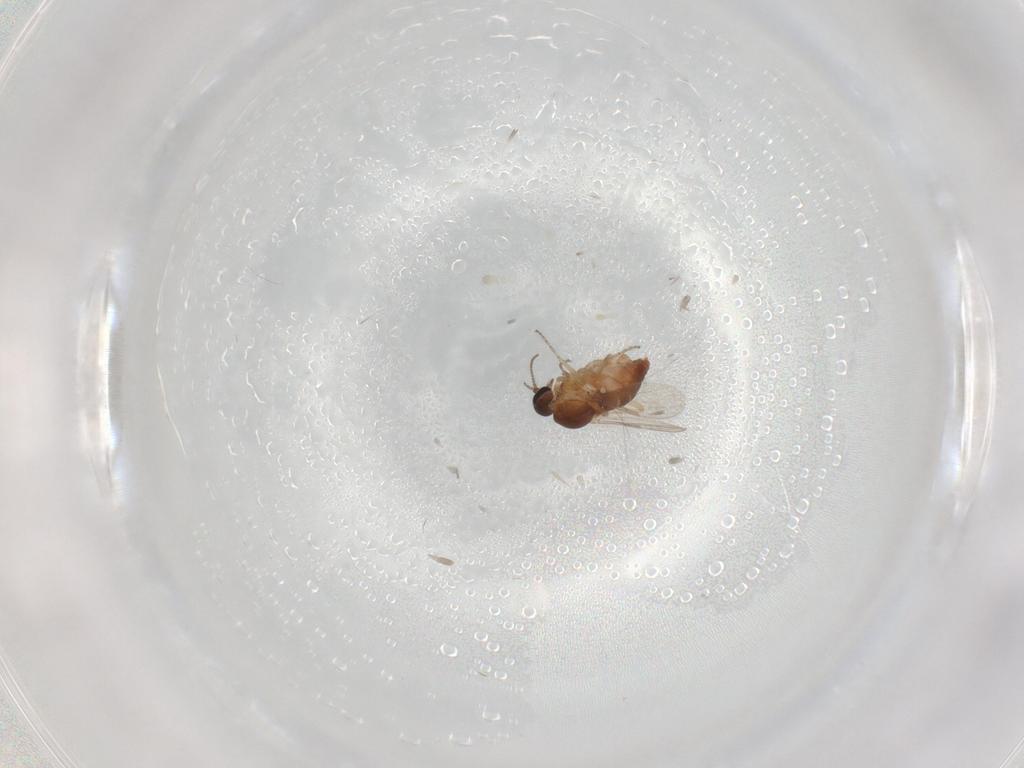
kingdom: Animalia
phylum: Arthropoda
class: Insecta
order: Diptera
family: Ceratopogonidae
